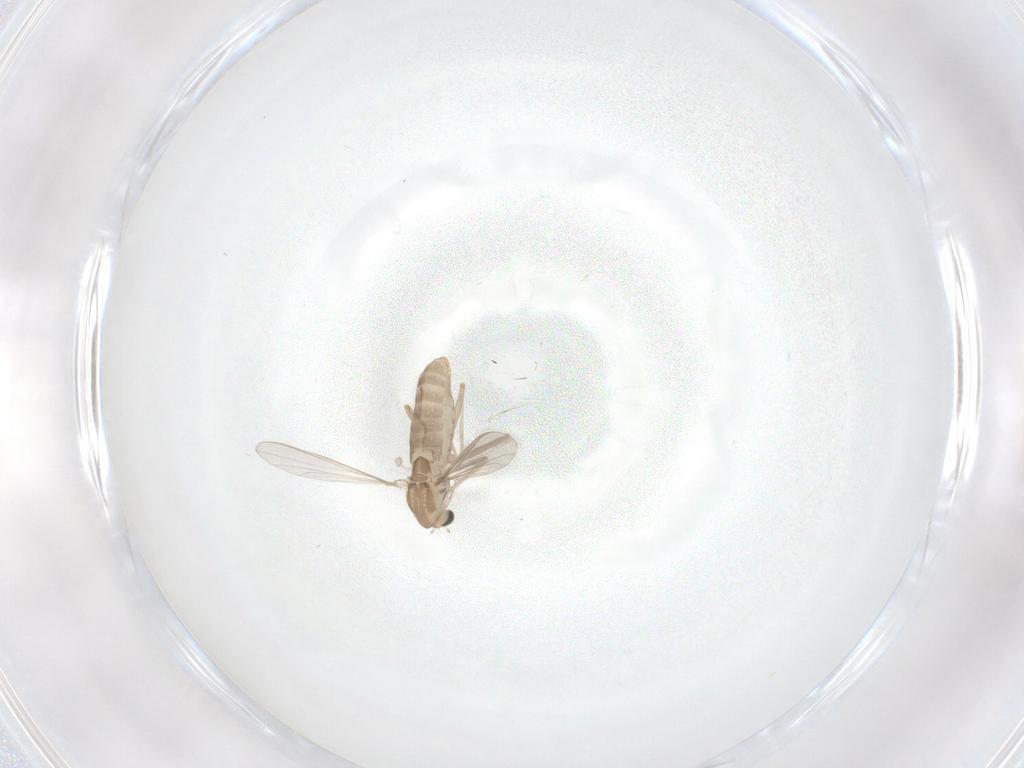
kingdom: Animalia
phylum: Arthropoda
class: Insecta
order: Diptera
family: Chironomidae
